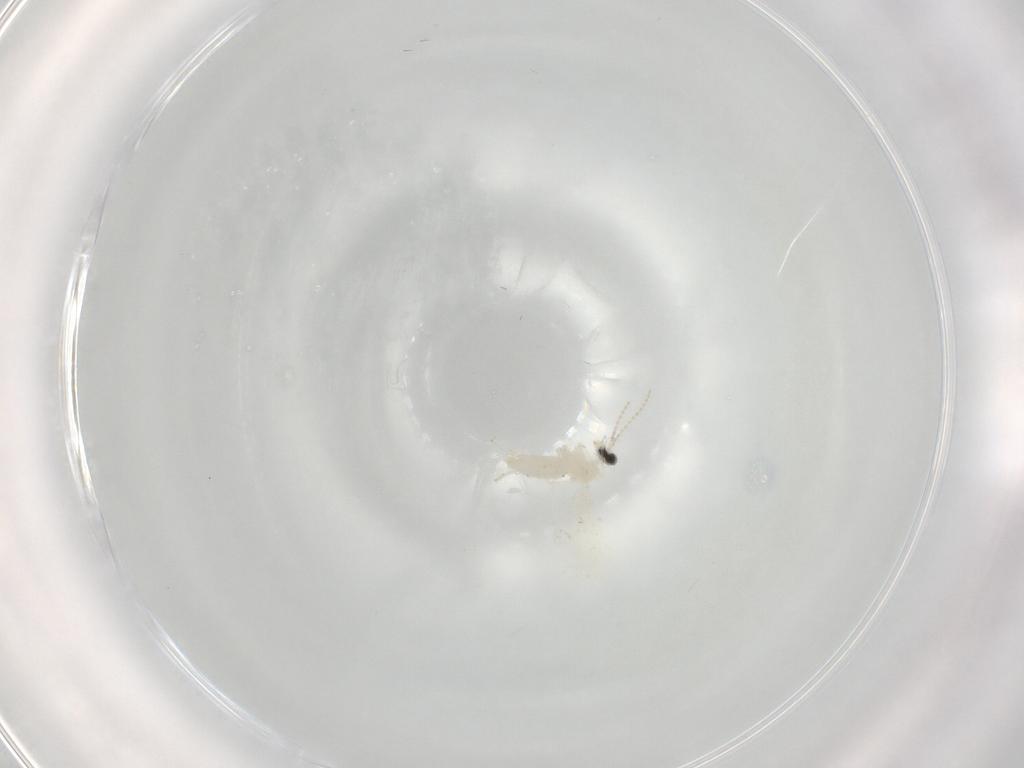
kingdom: Animalia
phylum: Arthropoda
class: Insecta
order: Diptera
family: Cecidomyiidae
